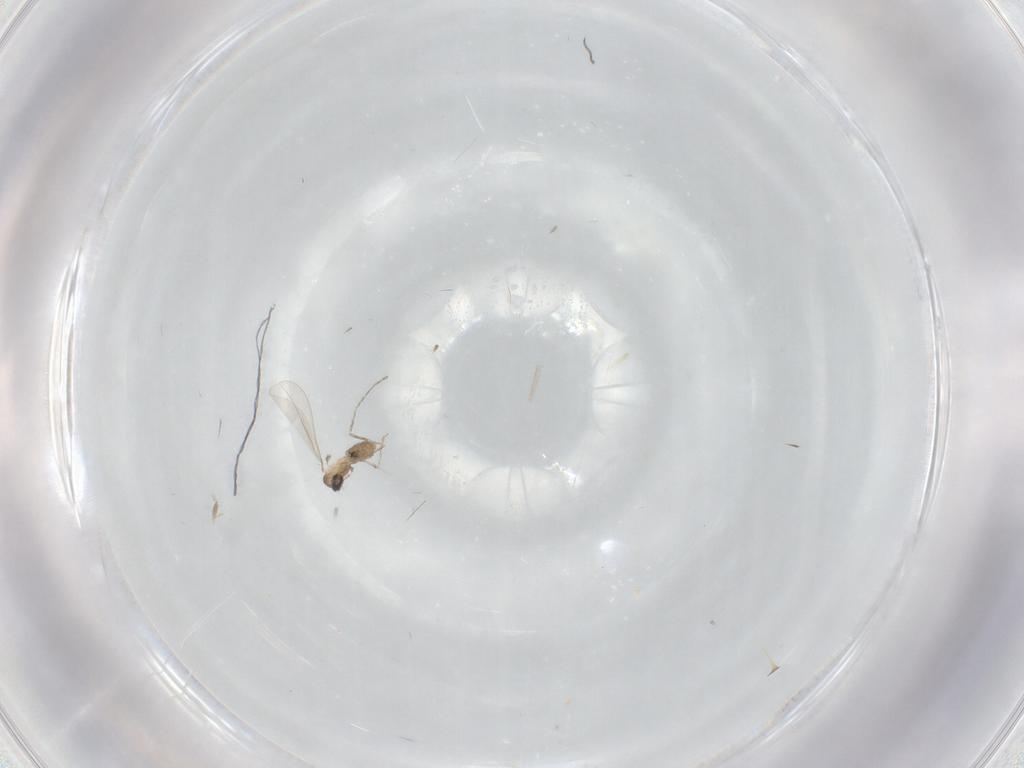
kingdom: Animalia
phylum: Arthropoda
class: Insecta
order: Diptera
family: Cecidomyiidae
